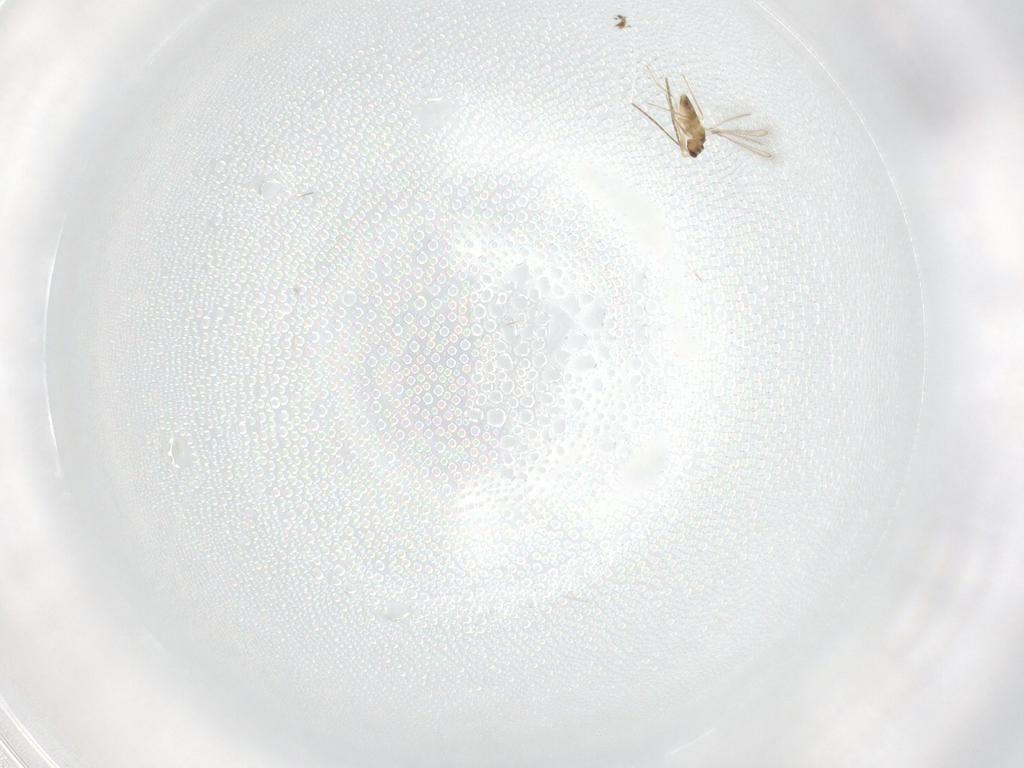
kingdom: Animalia
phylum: Arthropoda
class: Insecta
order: Hymenoptera
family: Mymaridae
